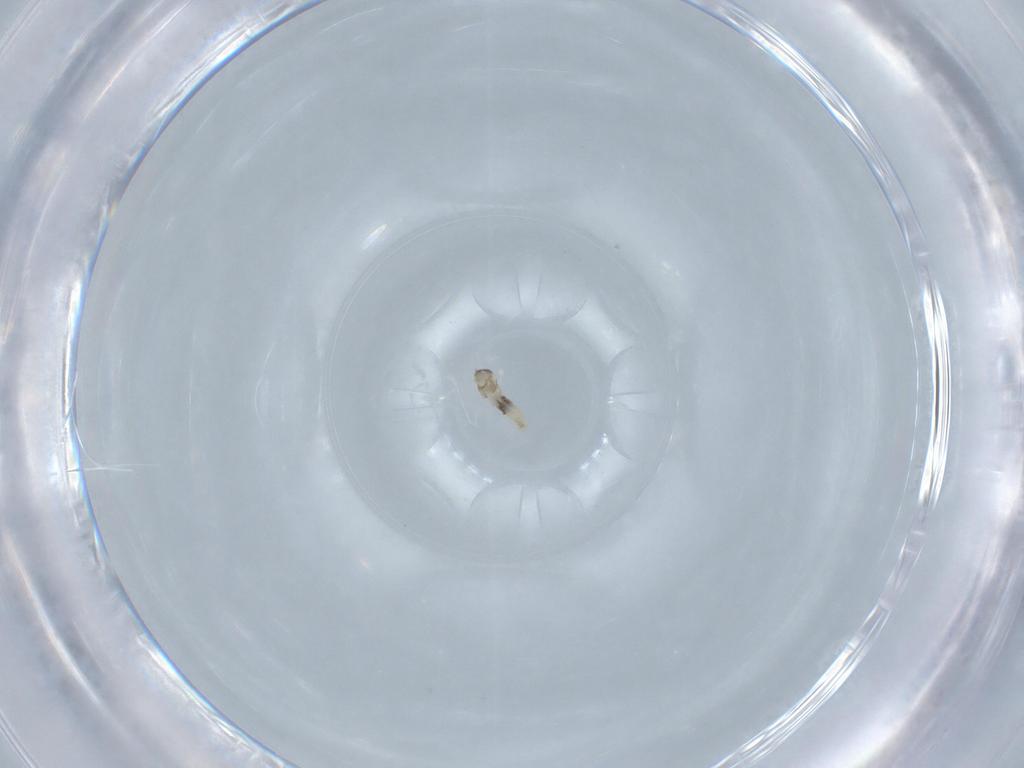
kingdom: Animalia
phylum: Arthropoda
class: Insecta
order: Diptera
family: Cecidomyiidae
